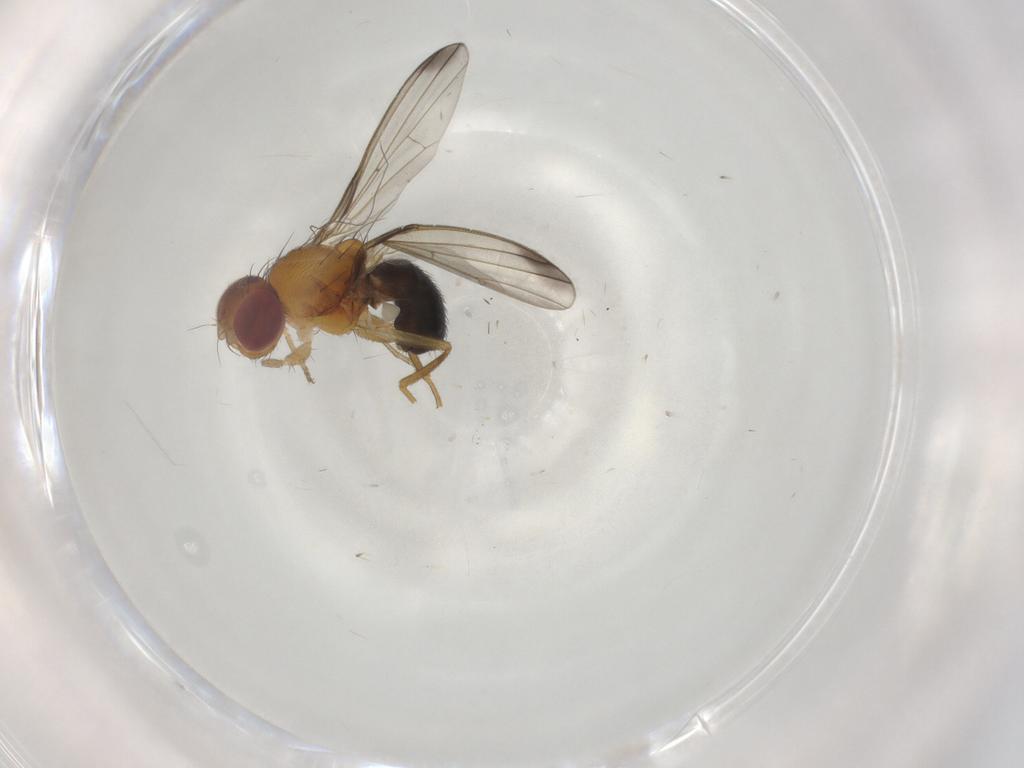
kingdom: Animalia
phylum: Arthropoda
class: Insecta
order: Diptera
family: Piophilidae
